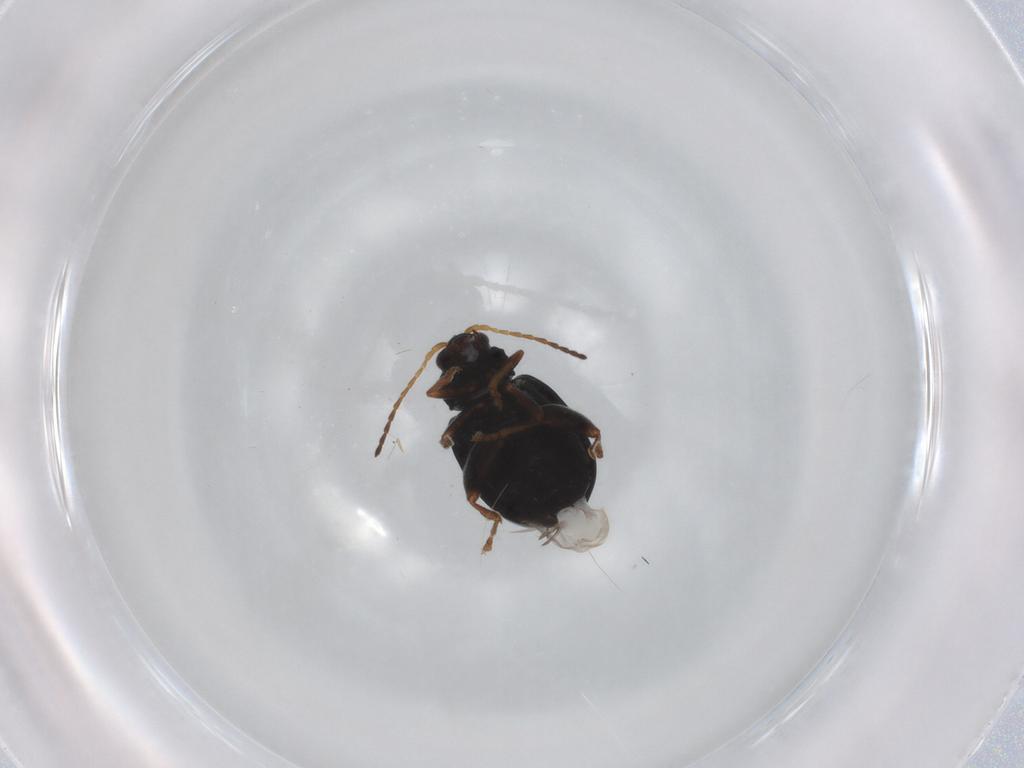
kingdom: Animalia
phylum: Arthropoda
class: Insecta
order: Coleoptera
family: Chrysomelidae
